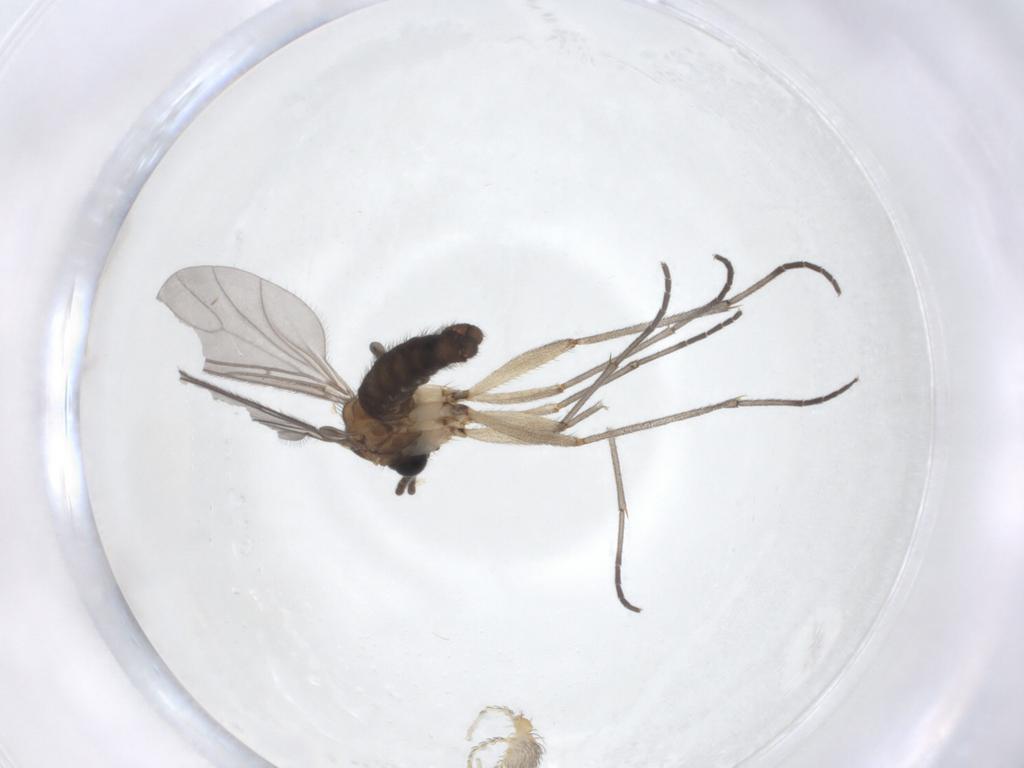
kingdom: Animalia
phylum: Arthropoda
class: Insecta
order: Diptera
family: Sciaridae
